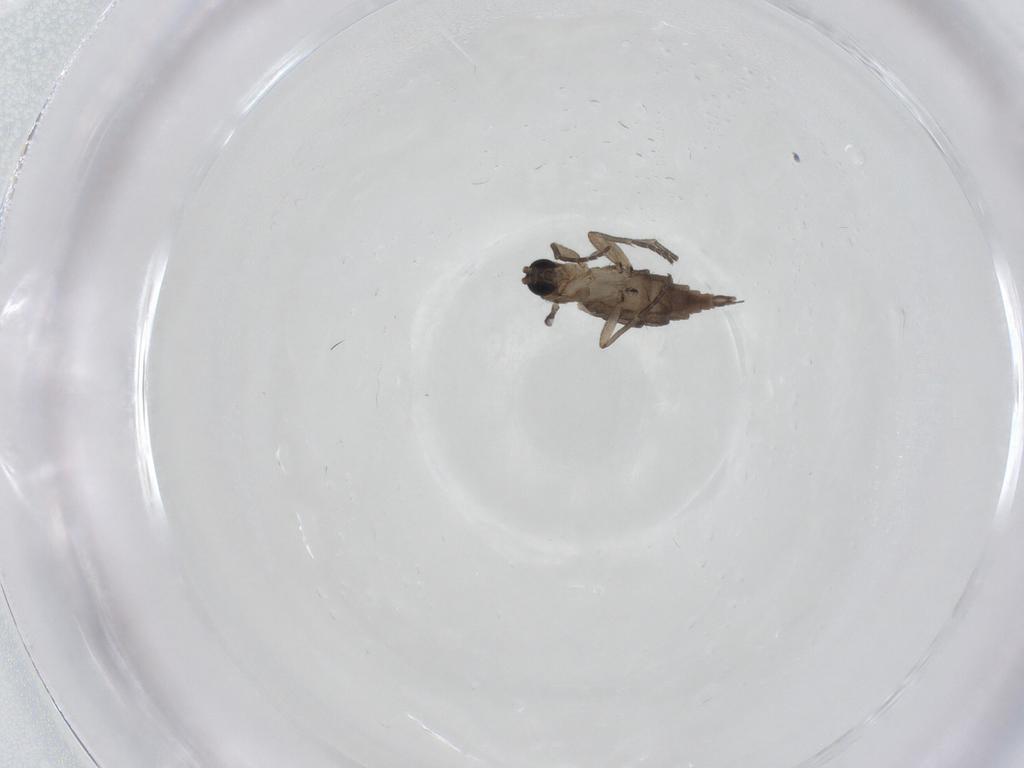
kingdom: Animalia
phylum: Arthropoda
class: Insecta
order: Diptera
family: Sciaridae
